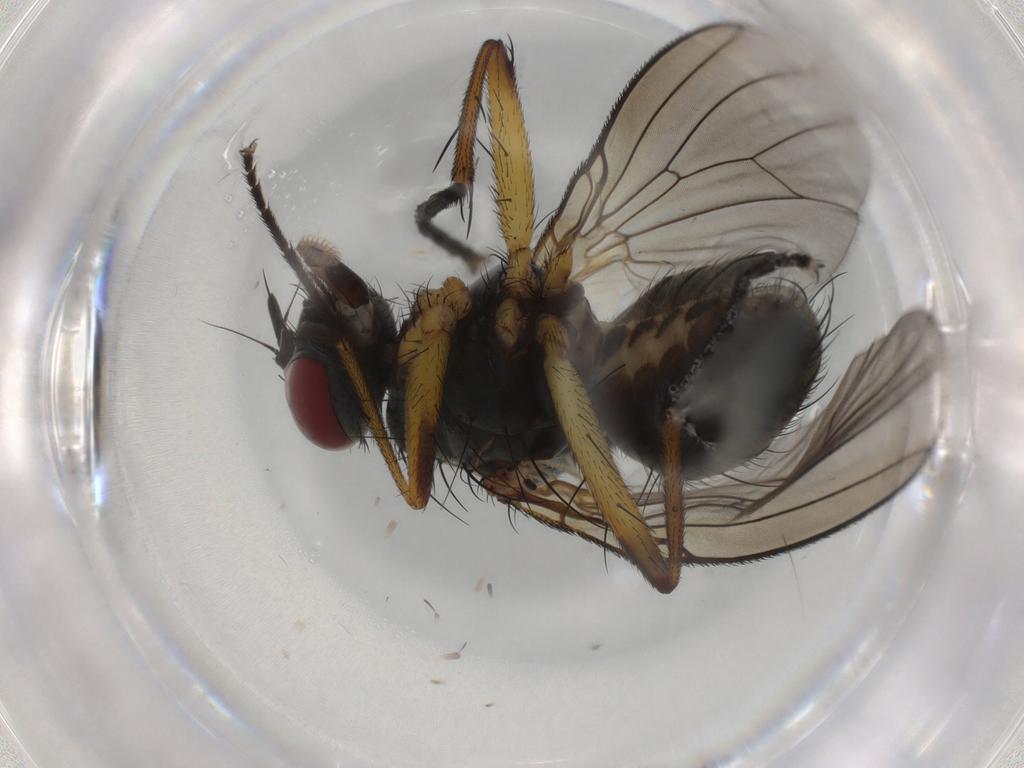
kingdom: Animalia
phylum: Arthropoda
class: Insecta
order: Diptera
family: Muscidae
